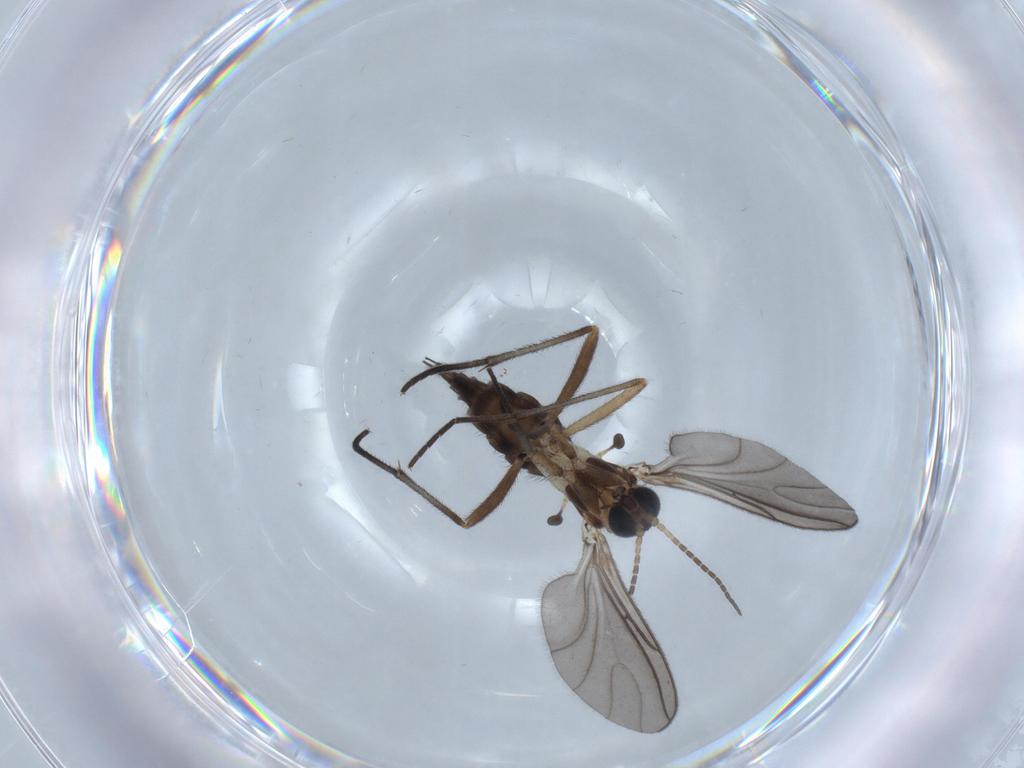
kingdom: Animalia
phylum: Arthropoda
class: Insecta
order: Diptera
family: Sciaridae
